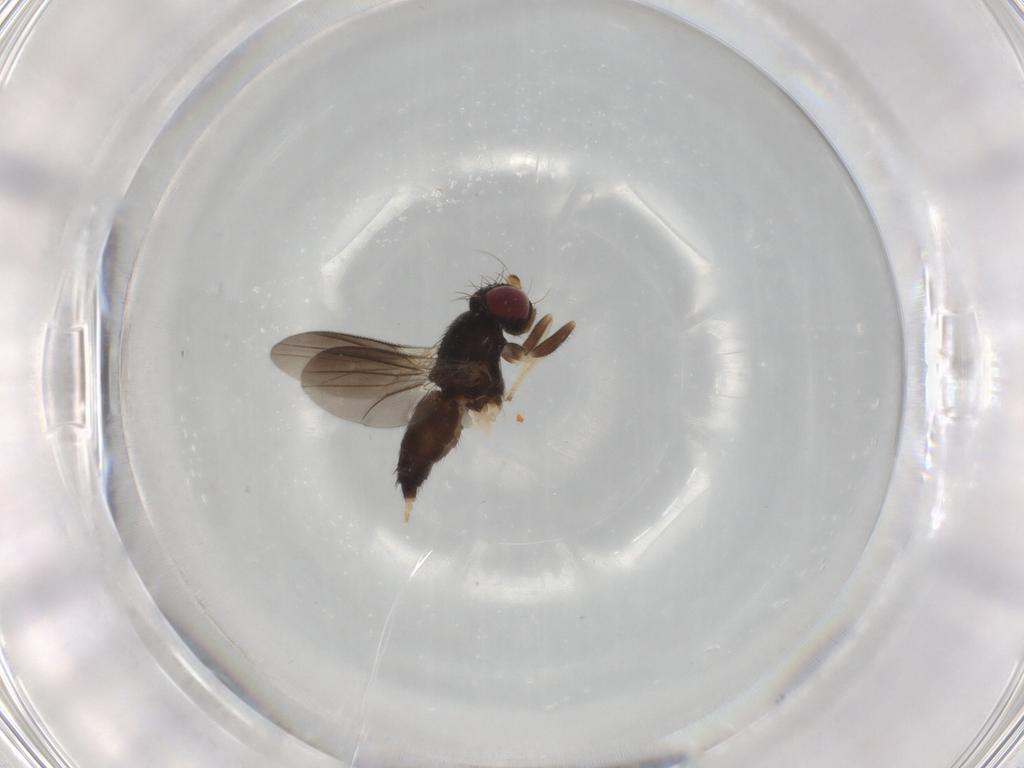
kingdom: Animalia
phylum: Arthropoda
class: Insecta
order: Diptera
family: Clusiidae
